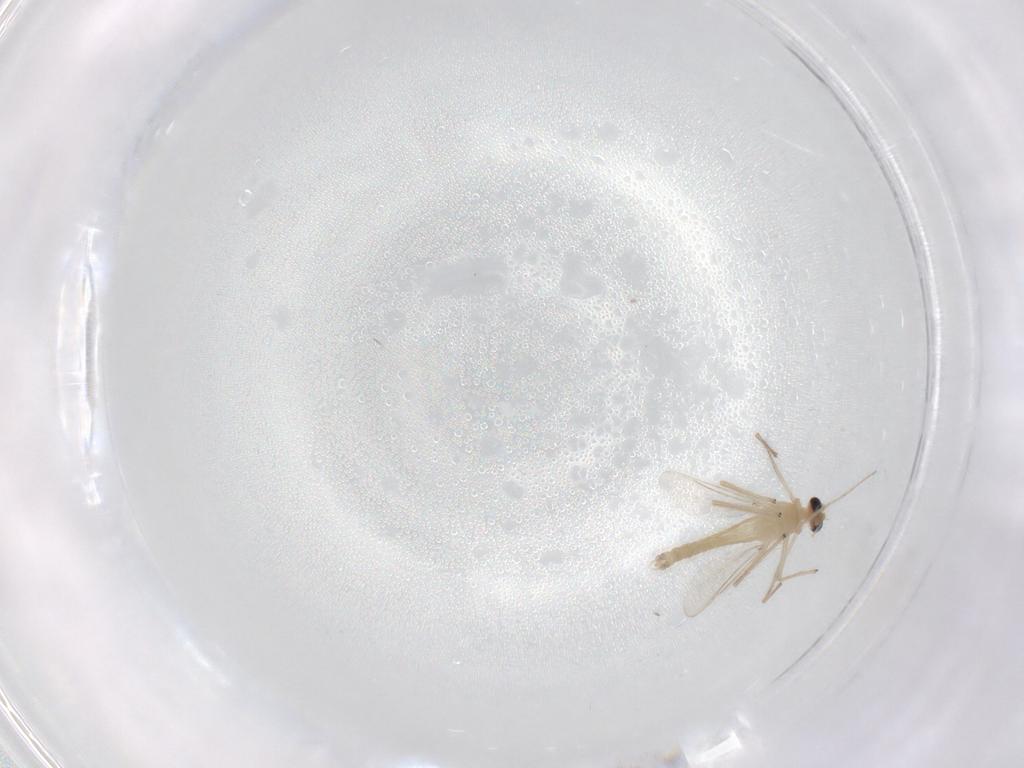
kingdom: Animalia
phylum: Arthropoda
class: Insecta
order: Diptera
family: Chironomidae
